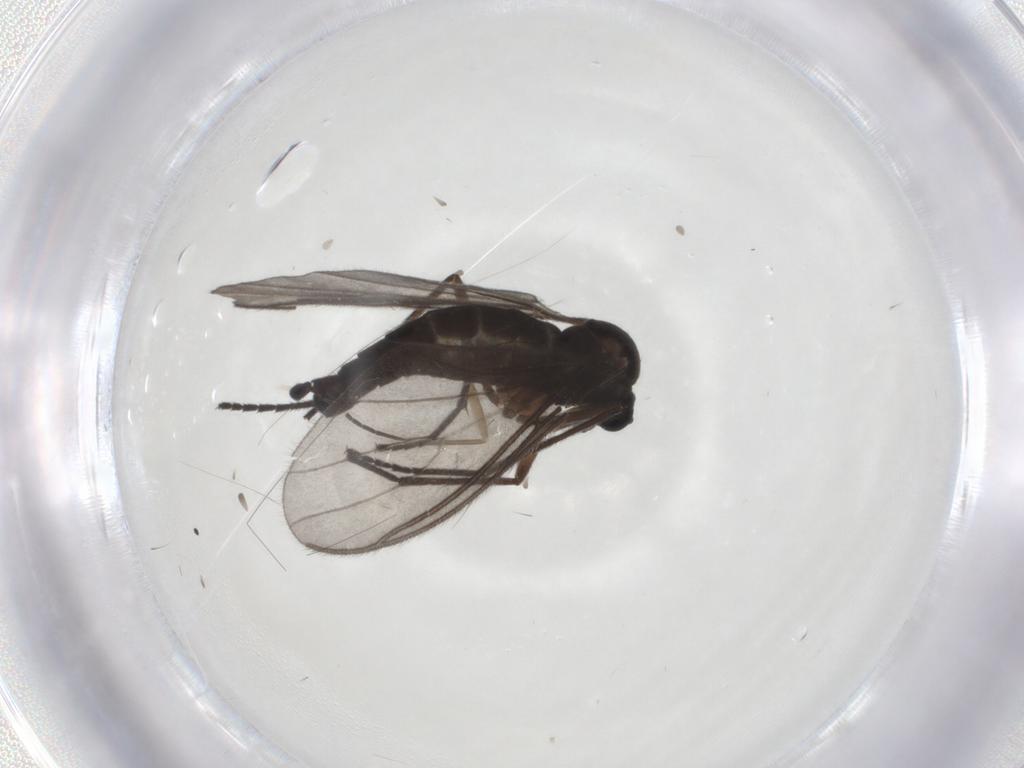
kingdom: Animalia
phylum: Arthropoda
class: Insecta
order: Diptera
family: Sciaridae
